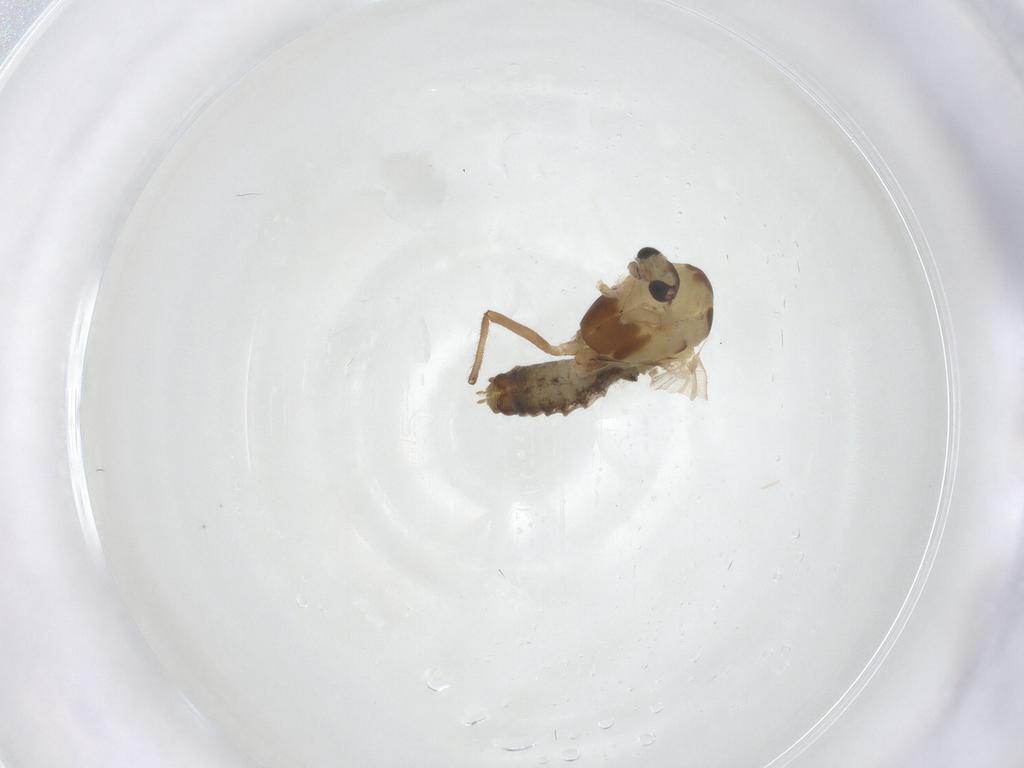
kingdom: Animalia
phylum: Arthropoda
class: Insecta
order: Diptera
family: Chironomidae
